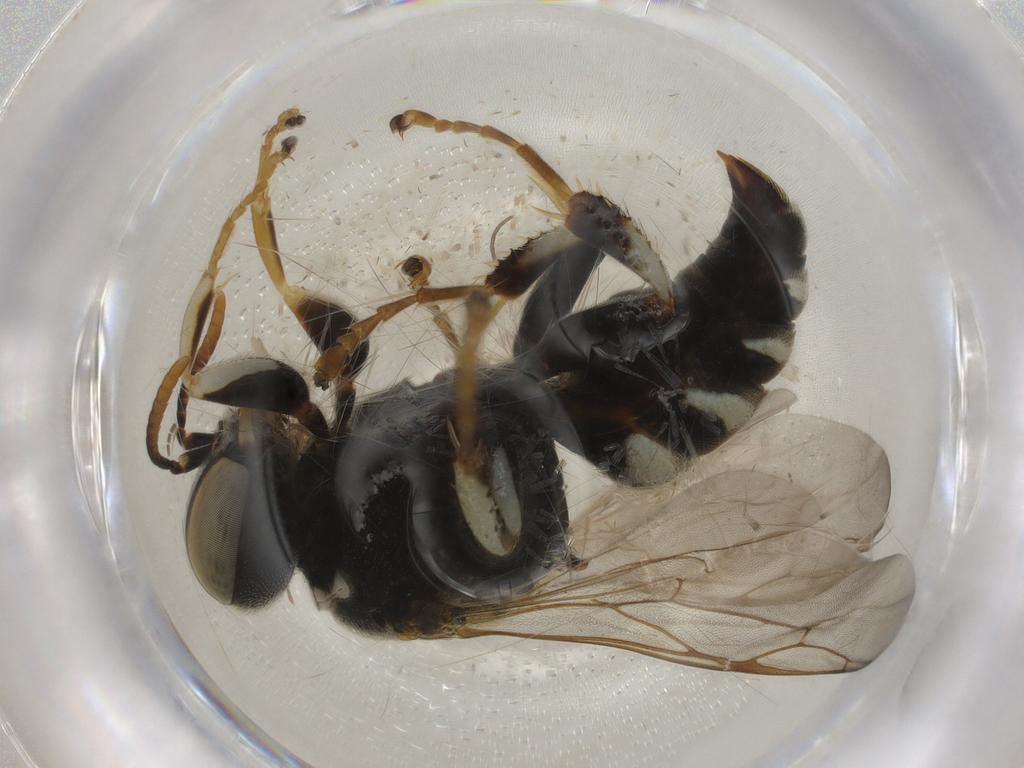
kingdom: Animalia
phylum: Arthropoda
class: Insecta
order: Hymenoptera
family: Crabronidae
